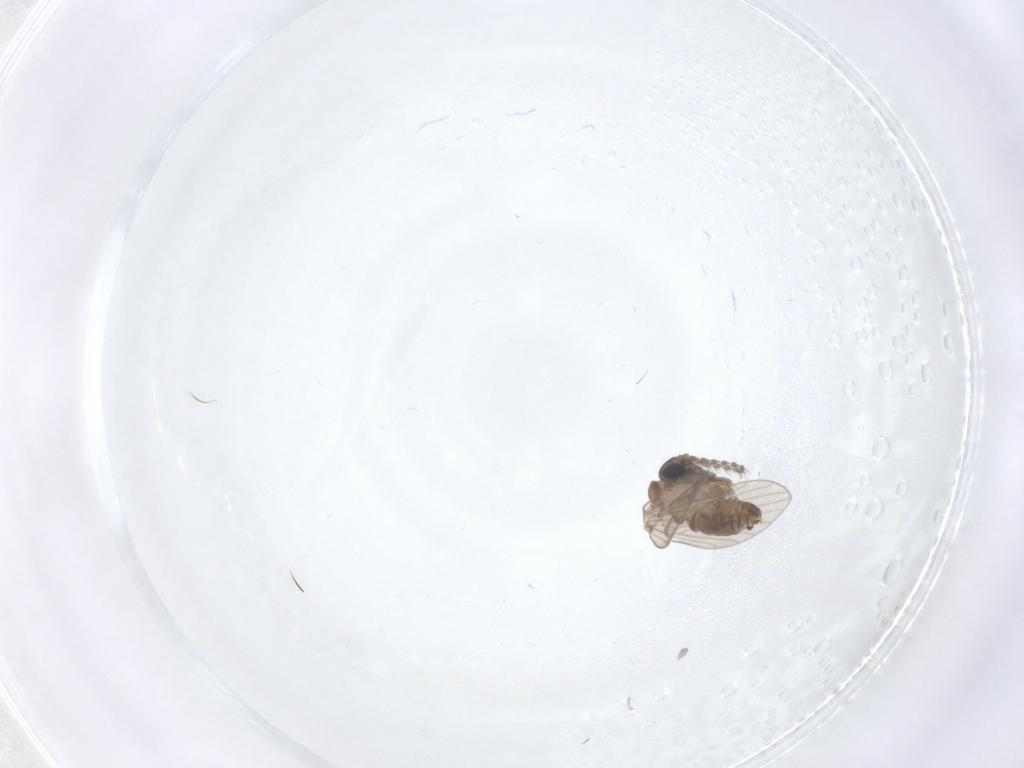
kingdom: Animalia
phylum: Arthropoda
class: Insecta
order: Diptera
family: Psychodidae
